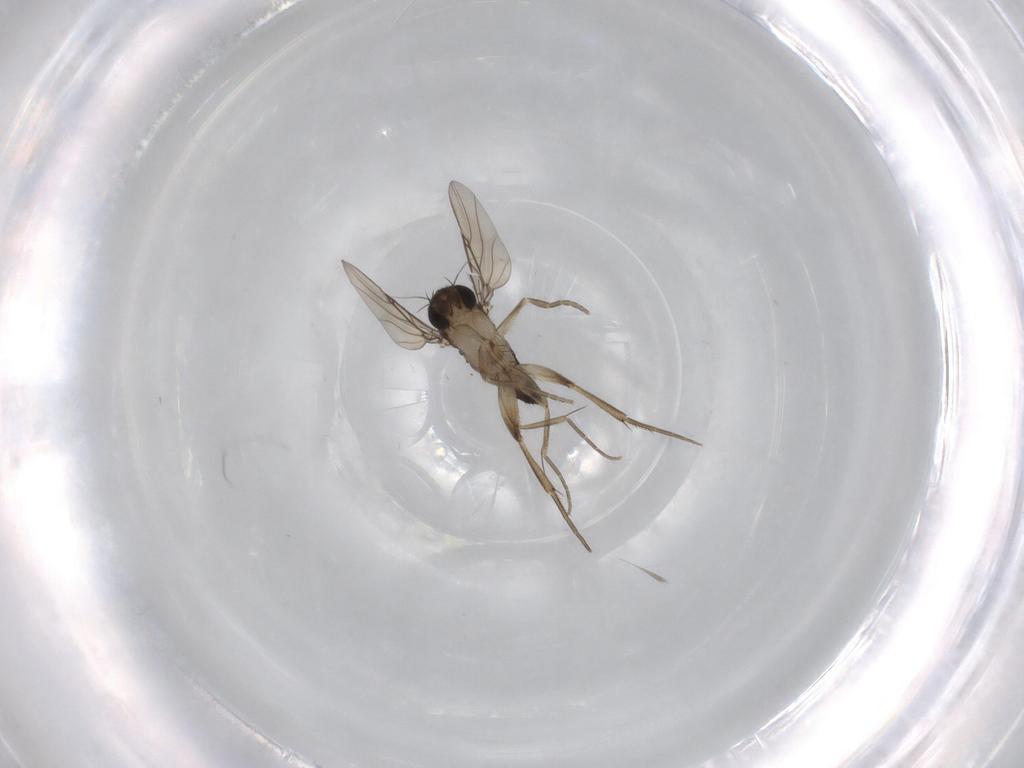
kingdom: Animalia
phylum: Arthropoda
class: Insecta
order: Diptera
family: Phoridae
